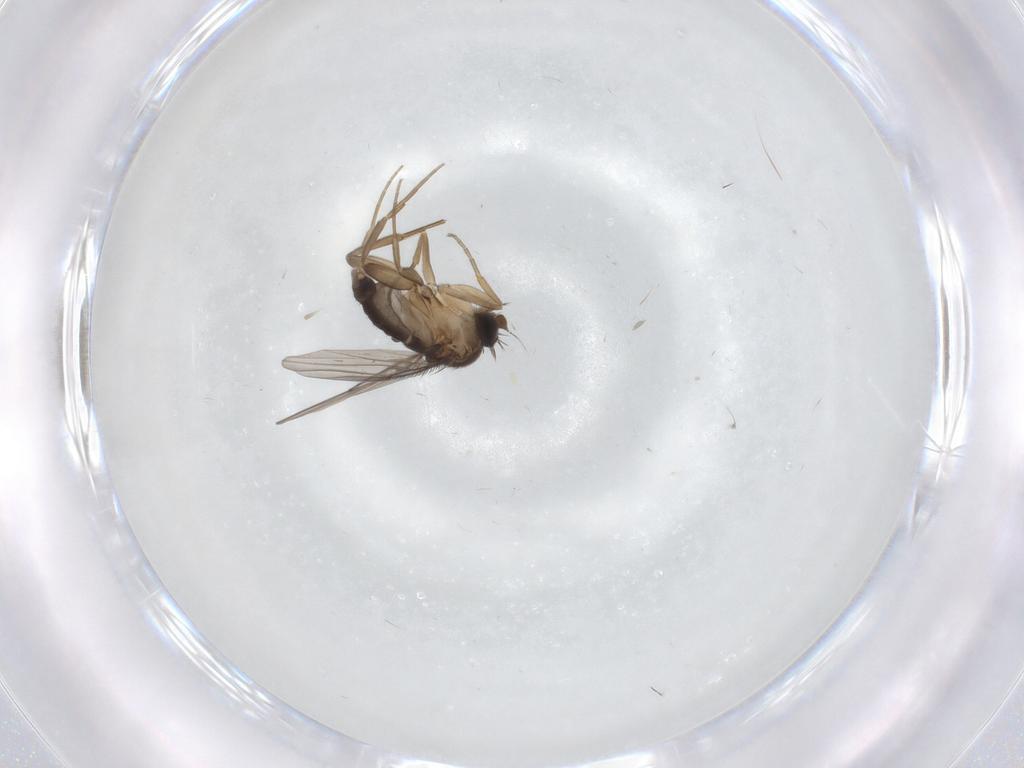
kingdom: Animalia
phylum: Arthropoda
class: Insecta
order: Diptera
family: Phoridae
